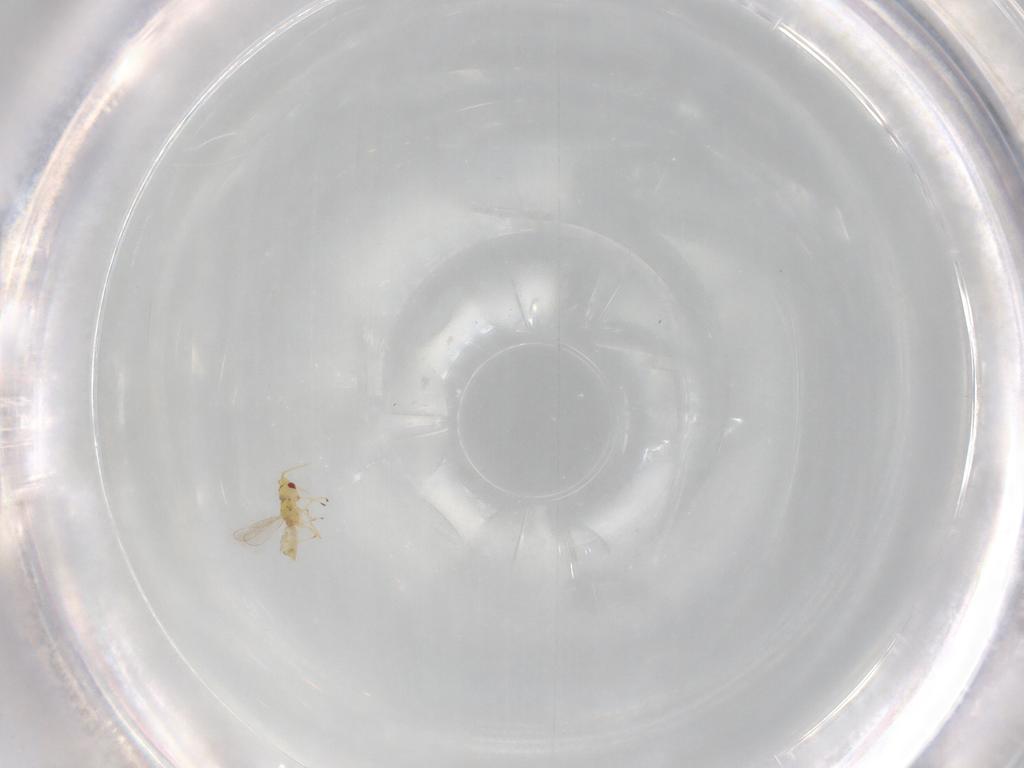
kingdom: Animalia
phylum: Arthropoda
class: Insecta
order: Hymenoptera
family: Eulophidae
